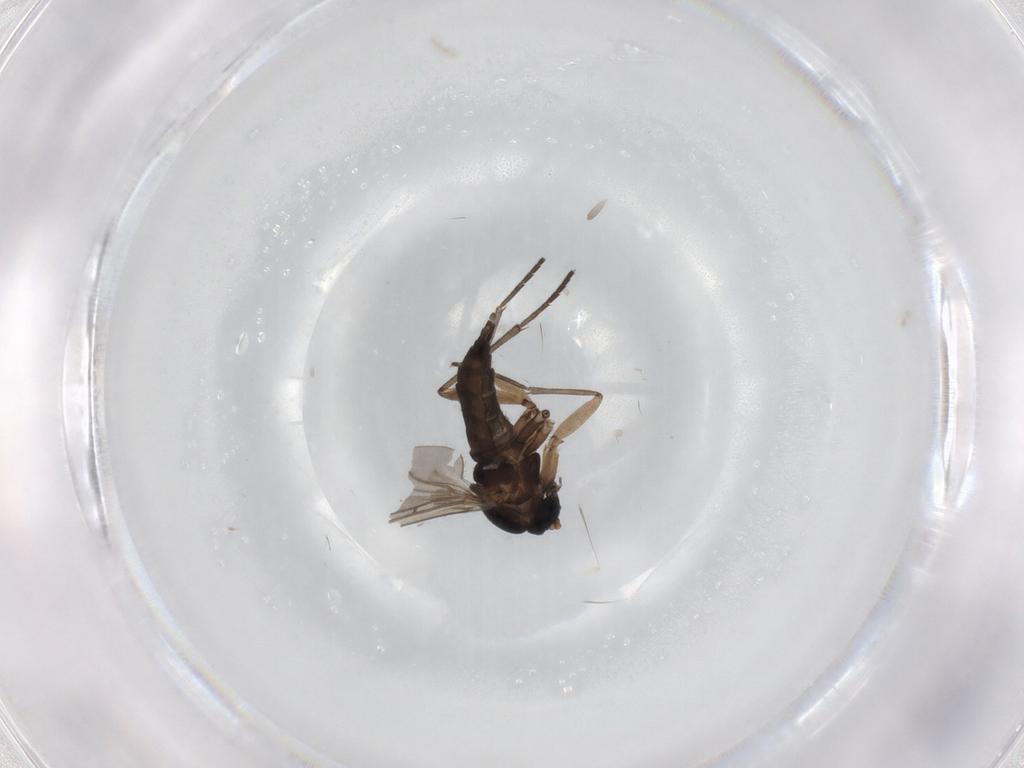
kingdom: Animalia
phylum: Arthropoda
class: Insecta
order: Diptera
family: Sciaridae
